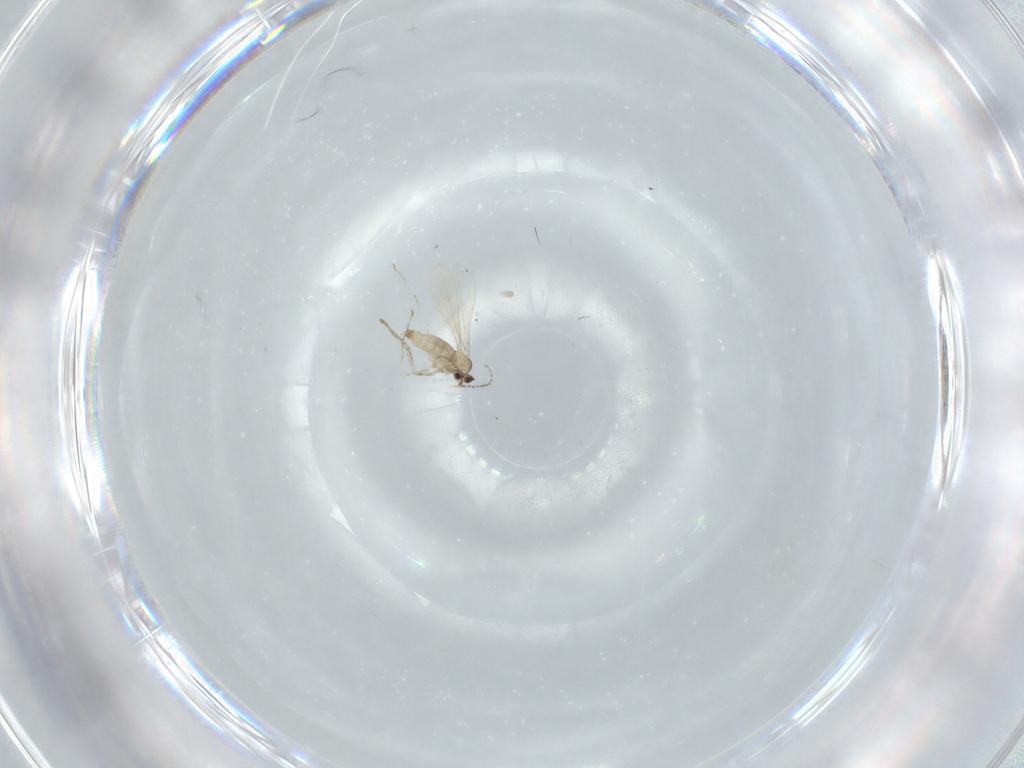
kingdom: Animalia
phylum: Arthropoda
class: Insecta
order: Diptera
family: Cecidomyiidae
